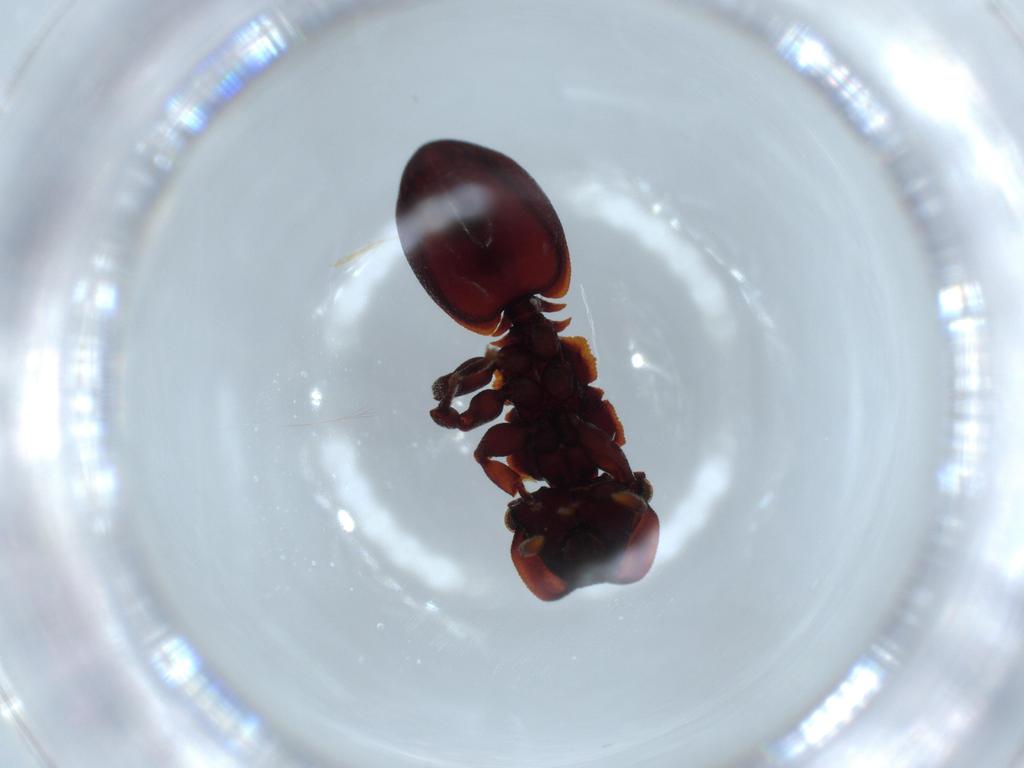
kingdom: Animalia
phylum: Arthropoda
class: Insecta
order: Hymenoptera
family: Formicidae
